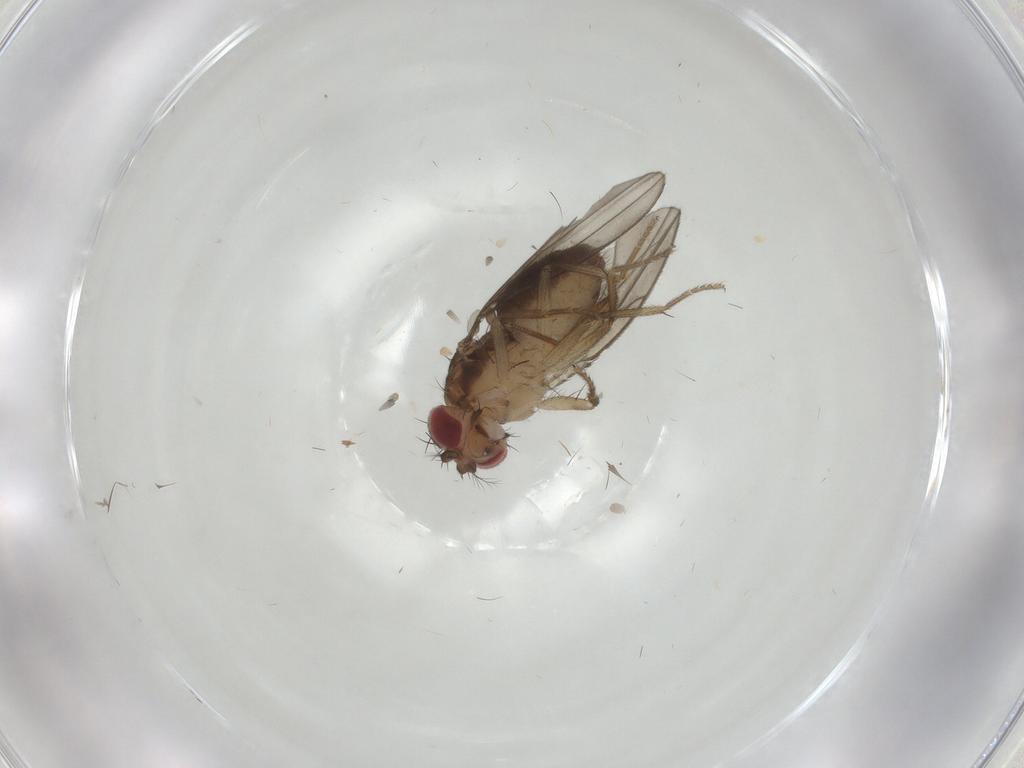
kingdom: Animalia
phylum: Arthropoda
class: Insecta
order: Diptera
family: Drosophilidae
